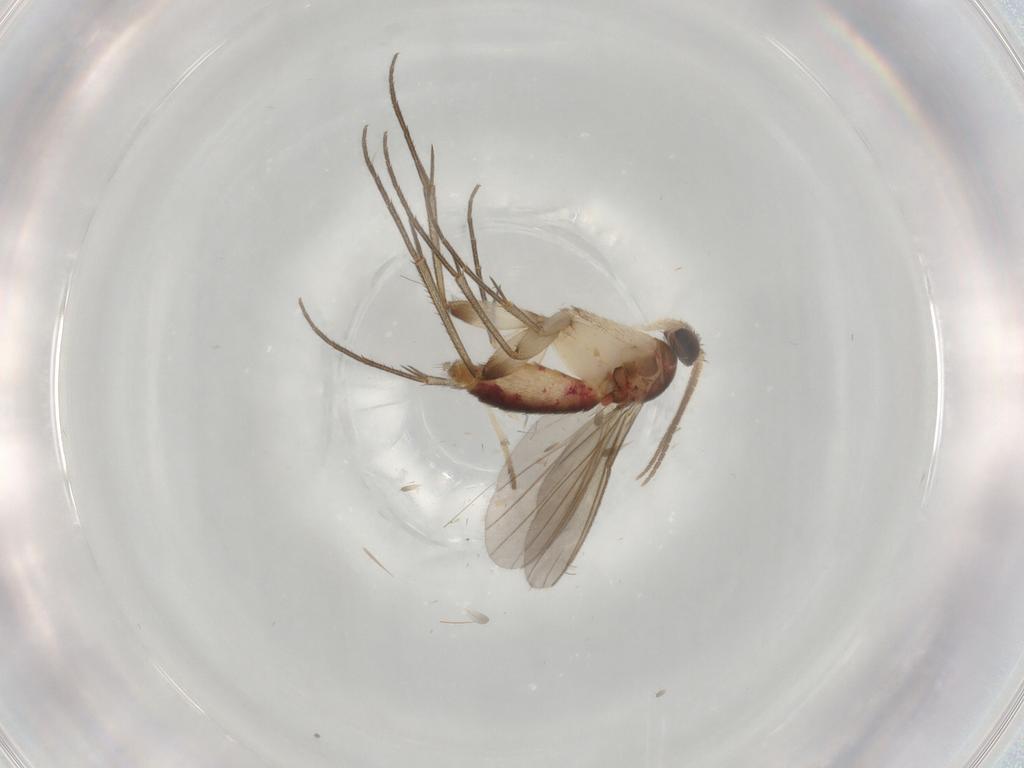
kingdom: Animalia
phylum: Arthropoda
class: Insecta
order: Diptera
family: Mycetophilidae
